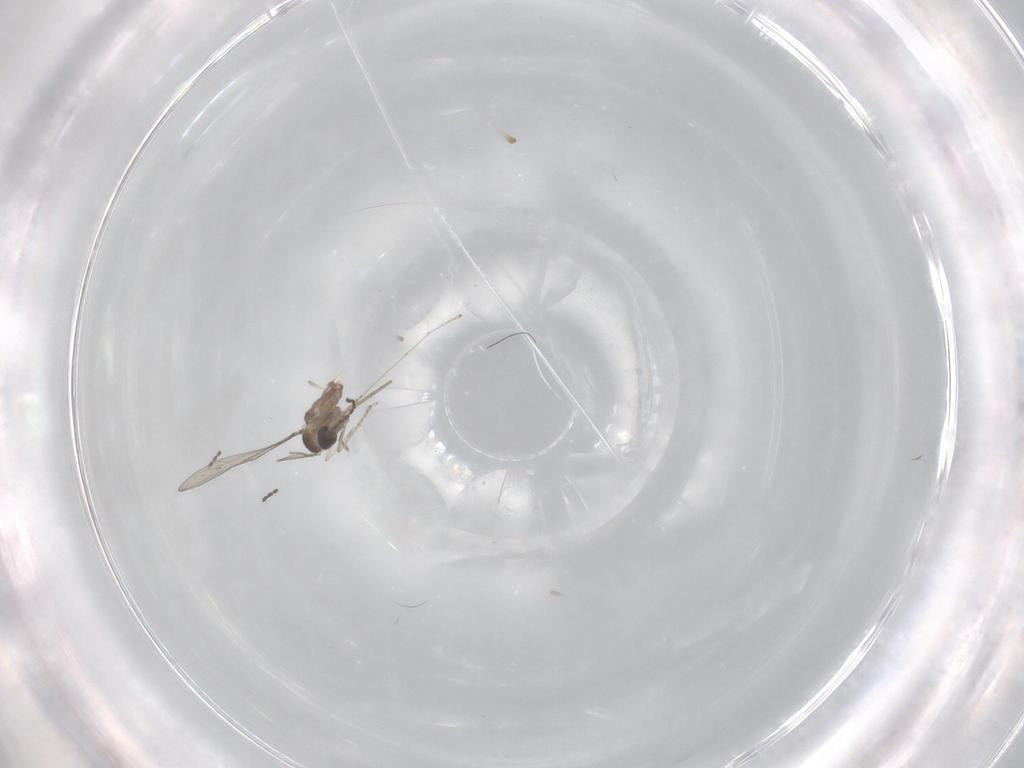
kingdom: Animalia
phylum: Arthropoda
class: Insecta
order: Diptera
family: Cecidomyiidae
